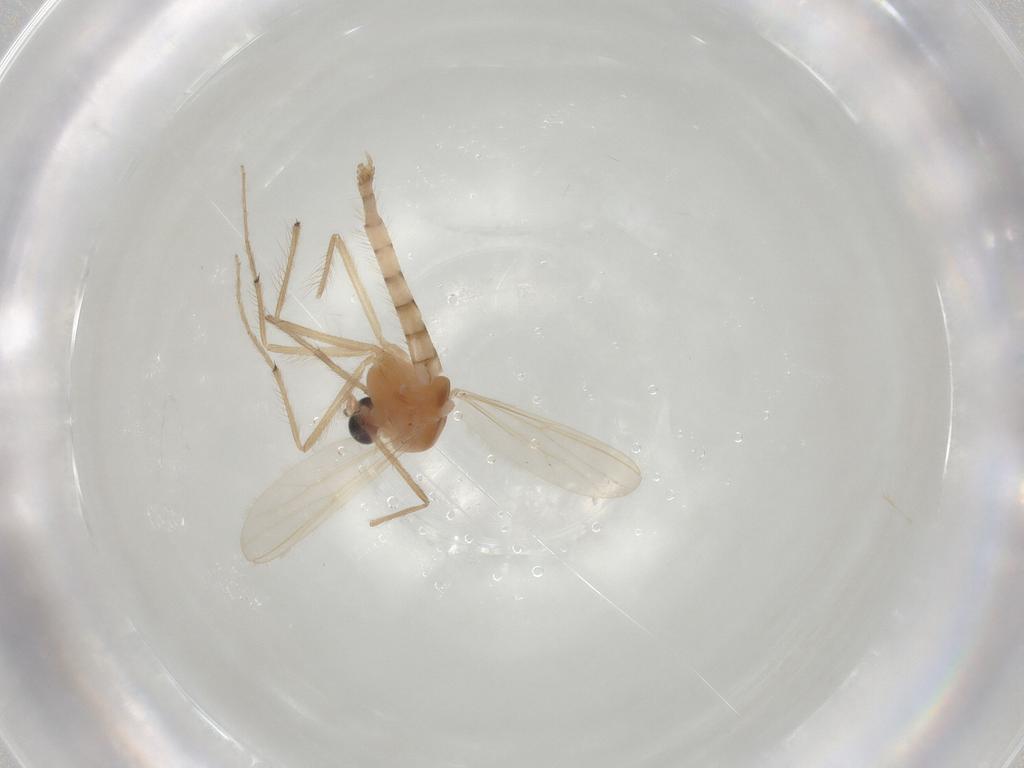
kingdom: Animalia
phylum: Arthropoda
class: Insecta
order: Diptera
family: Chironomidae
